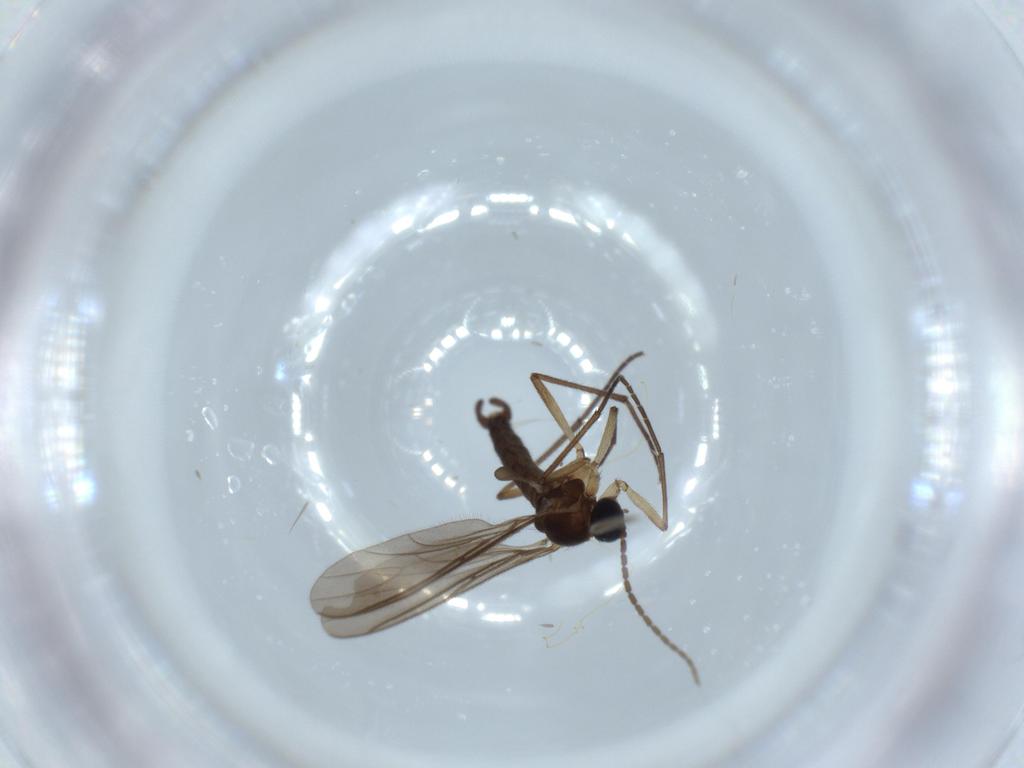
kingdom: Animalia
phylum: Arthropoda
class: Insecta
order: Diptera
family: Sciaridae
